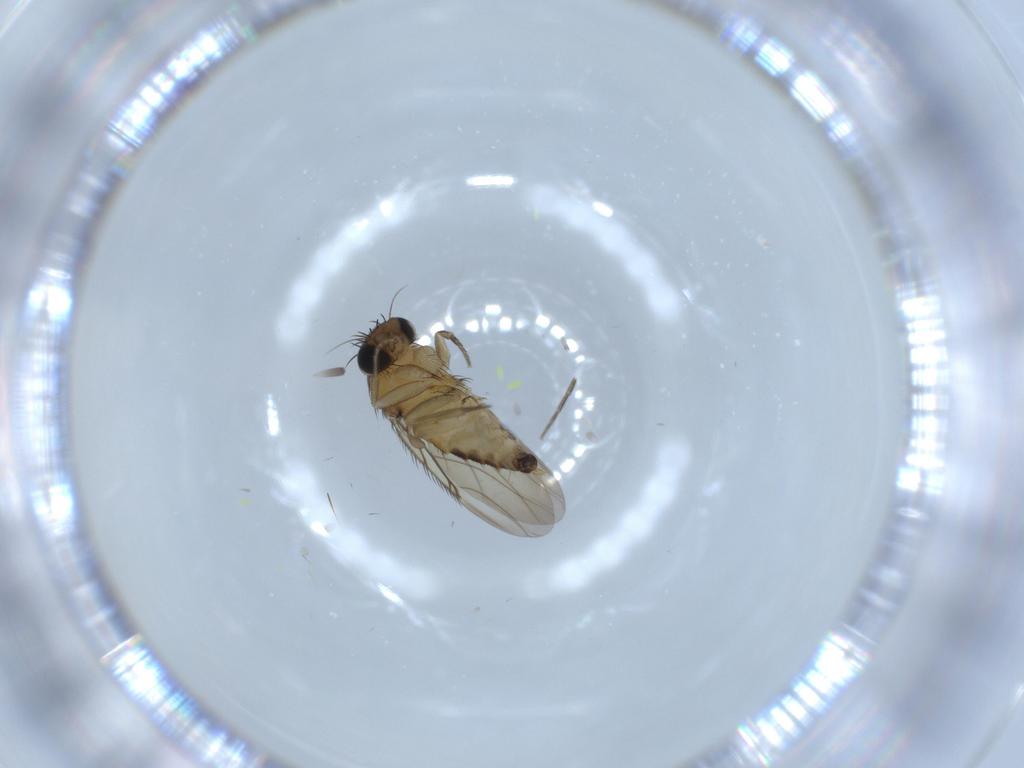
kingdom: Animalia
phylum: Arthropoda
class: Insecta
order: Diptera
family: Phoridae
